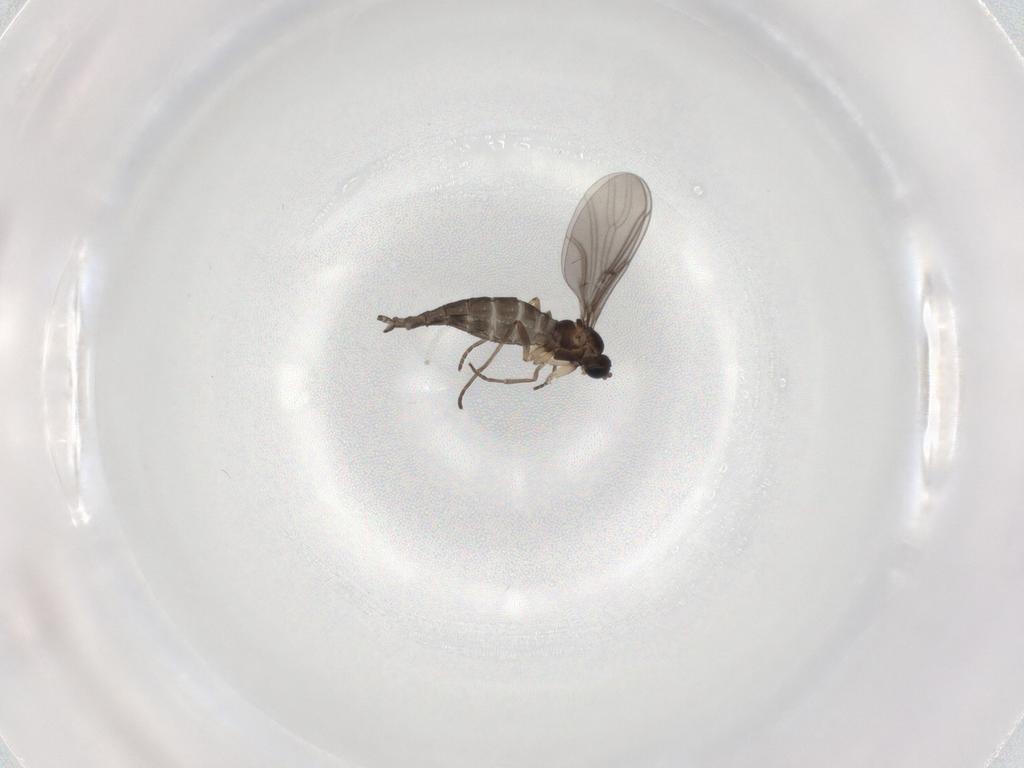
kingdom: Animalia
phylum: Arthropoda
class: Insecta
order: Diptera
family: Sciaridae
